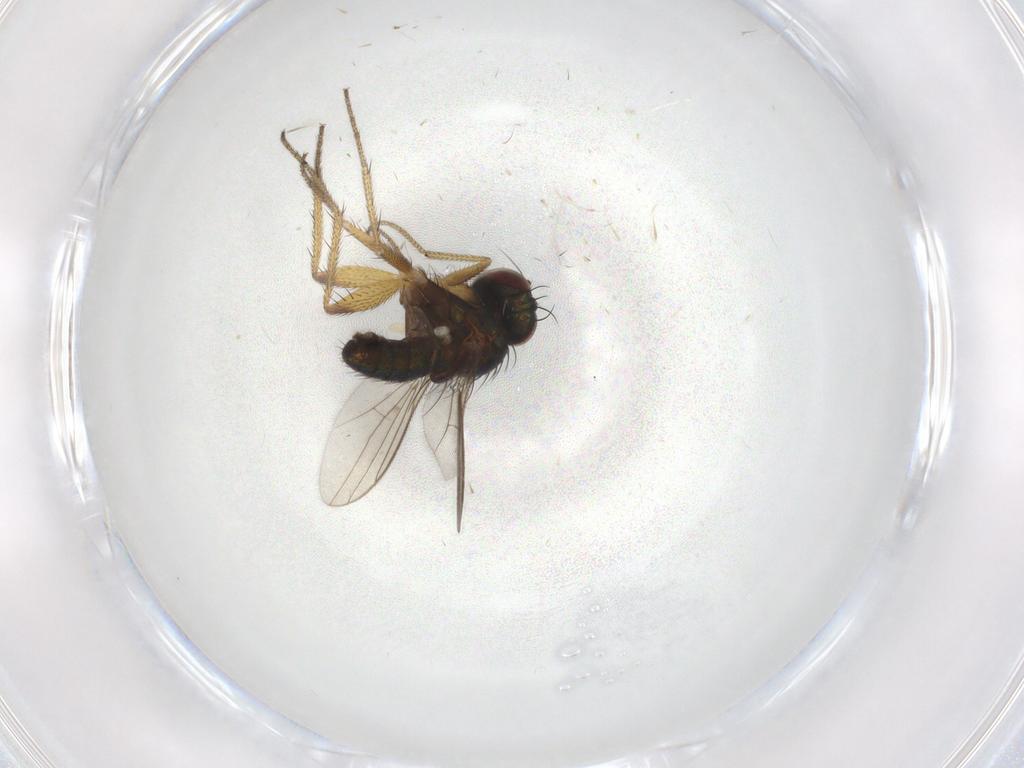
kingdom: Animalia
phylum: Arthropoda
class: Insecta
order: Diptera
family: Dolichopodidae
